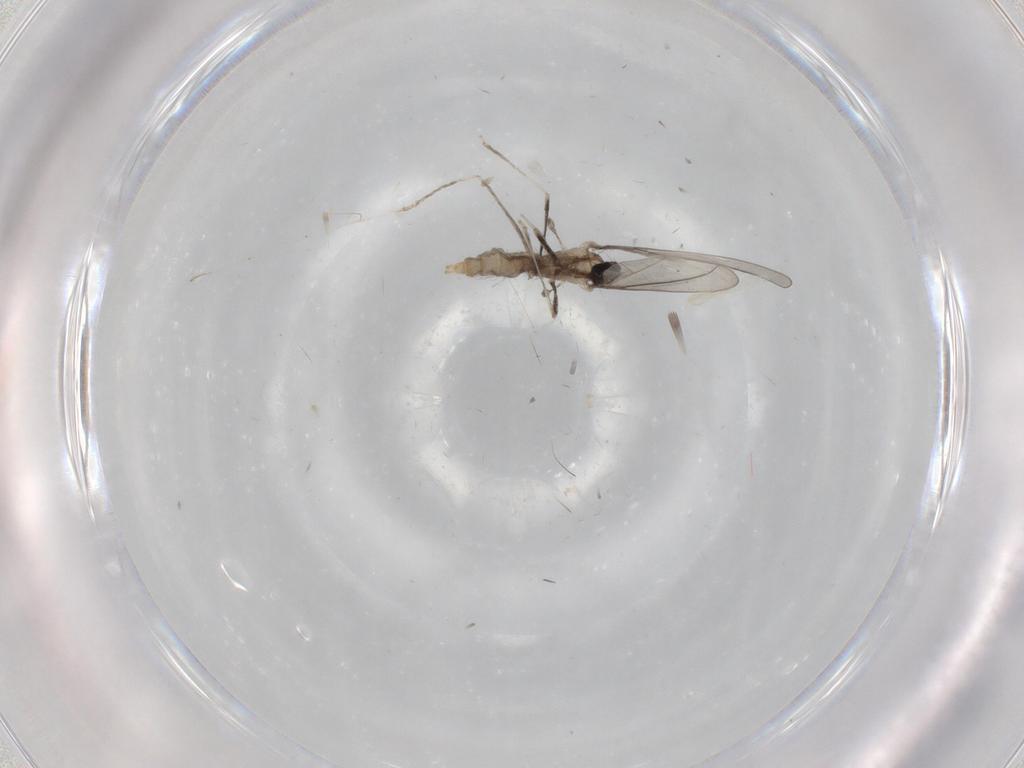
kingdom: Animalia
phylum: Arthropoda
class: Insecta
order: Diptera
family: Cecidomyiidae
